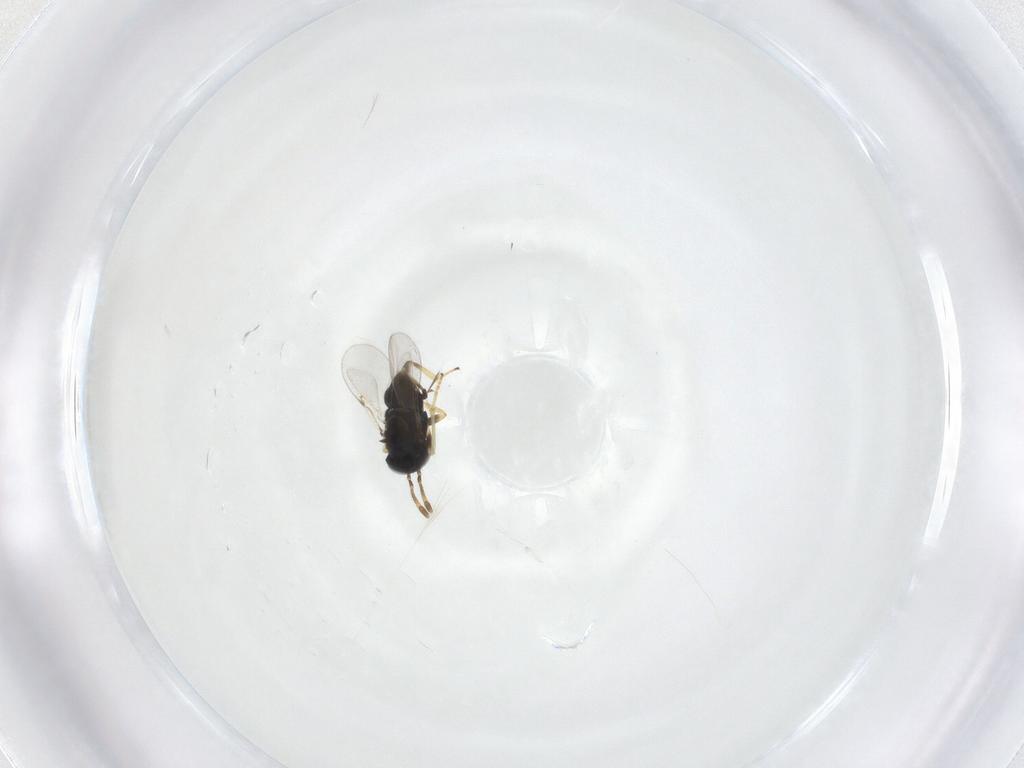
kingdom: Animalia
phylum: Arthropoda
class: Insecta
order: Hymenoptera
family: Encyrtidae
